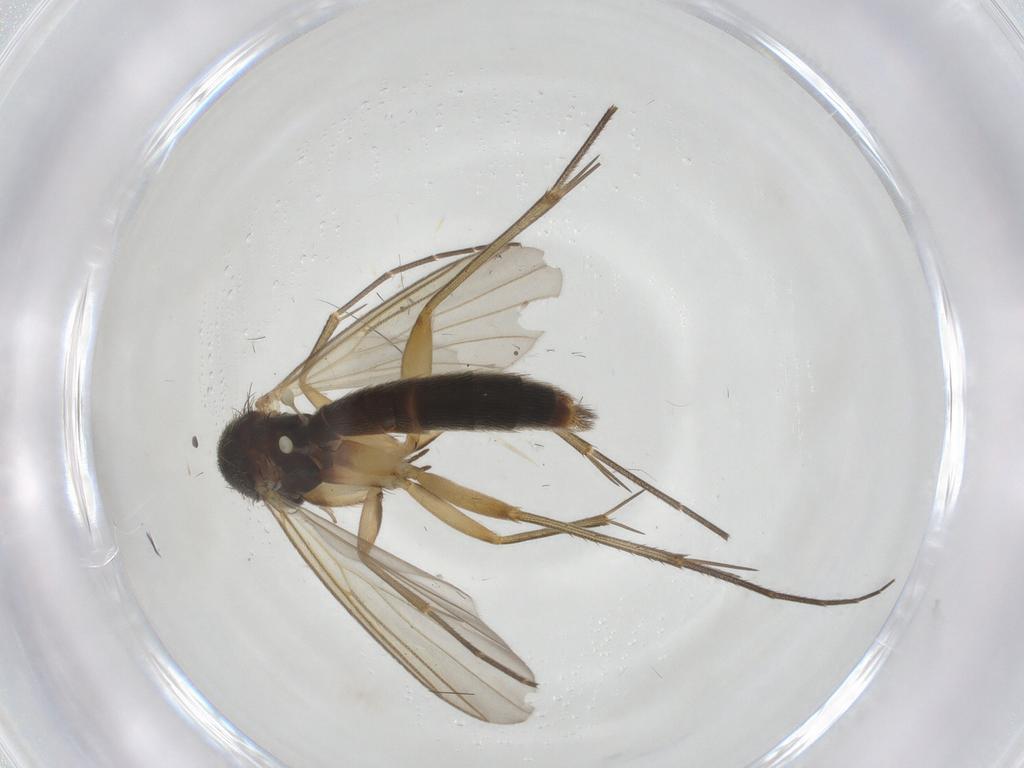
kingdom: Animalia
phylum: Arthropoda
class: Insecta
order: Diptera
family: Mycetophilidae
